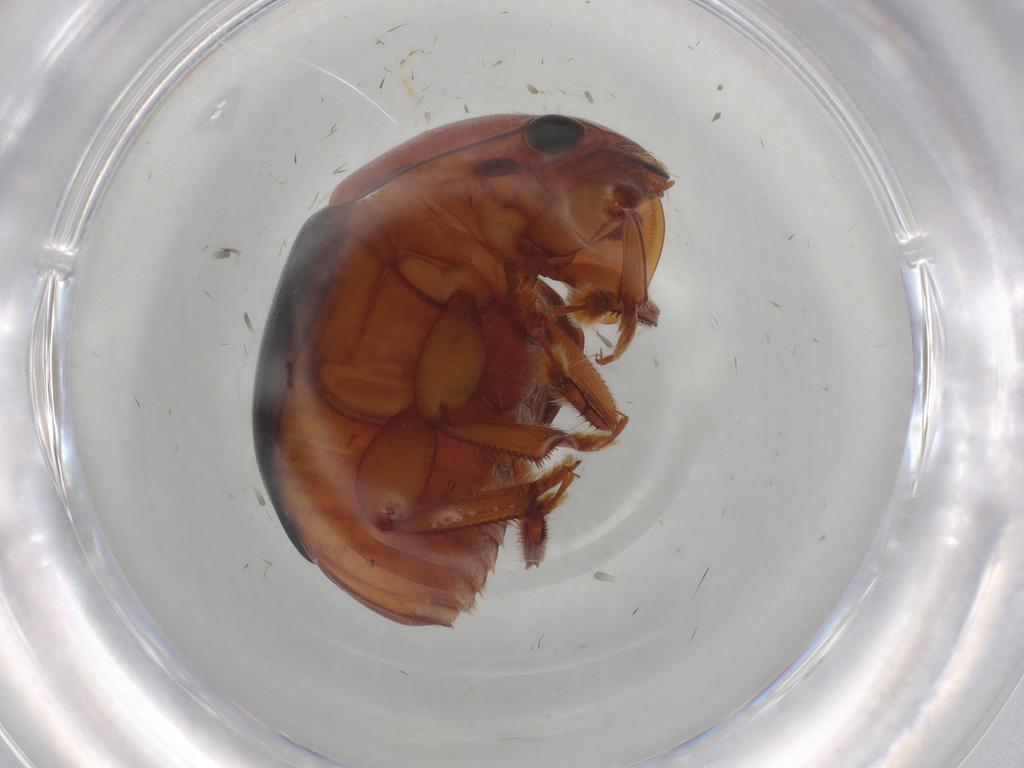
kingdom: Animalia
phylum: Arthropoda
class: Insecta
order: Coleoptera
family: Nitidulidae
